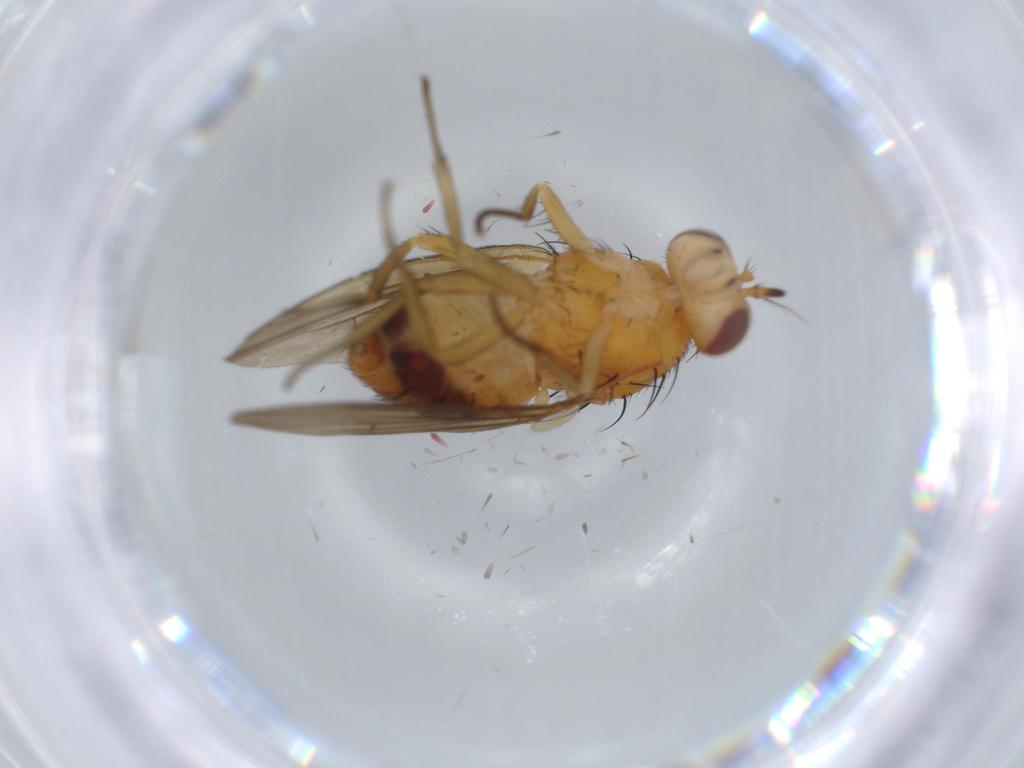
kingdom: Animalia
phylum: Arthropoda
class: Insecta
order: Diptera
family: Lauxaniidae
